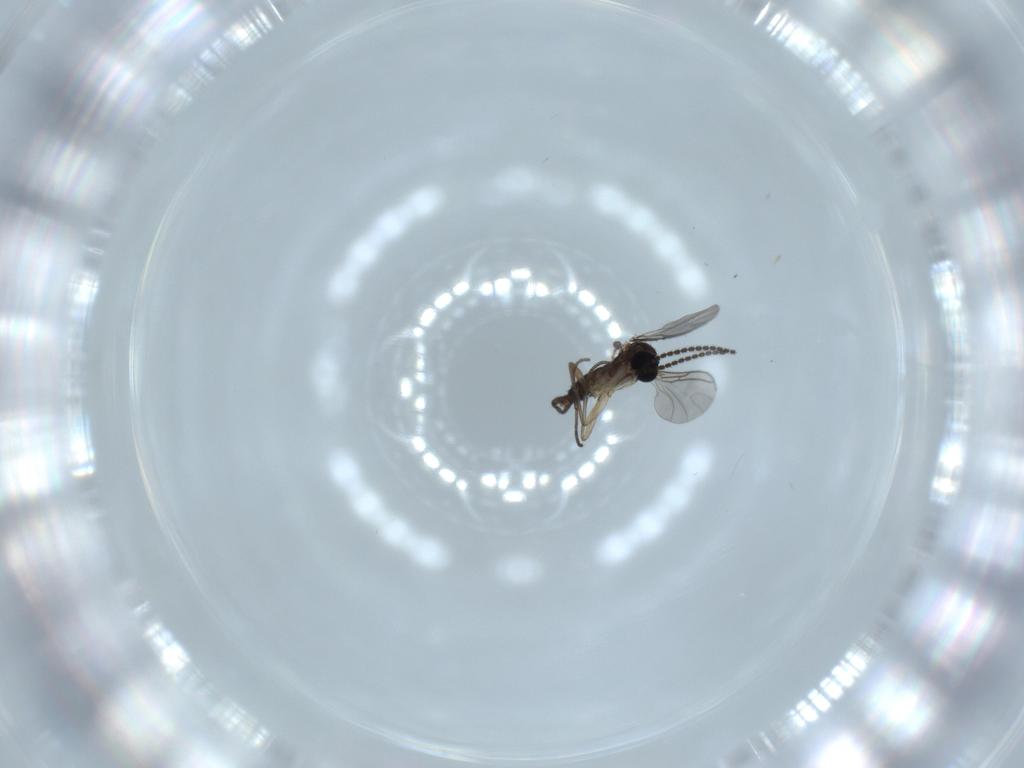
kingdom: Animalia
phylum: Arthropoda
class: Insecta
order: Diptera
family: Sciaridae
